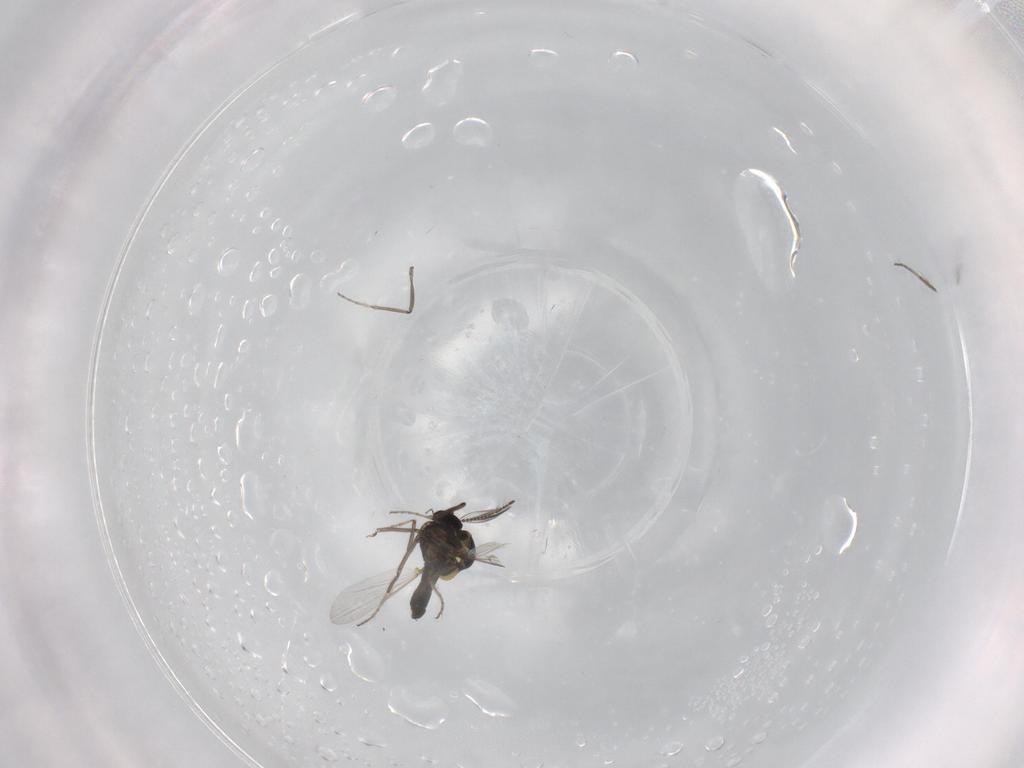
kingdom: Animalia
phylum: Arthropoda
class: Insecta
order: Diptera
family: Ceratopogonidae
